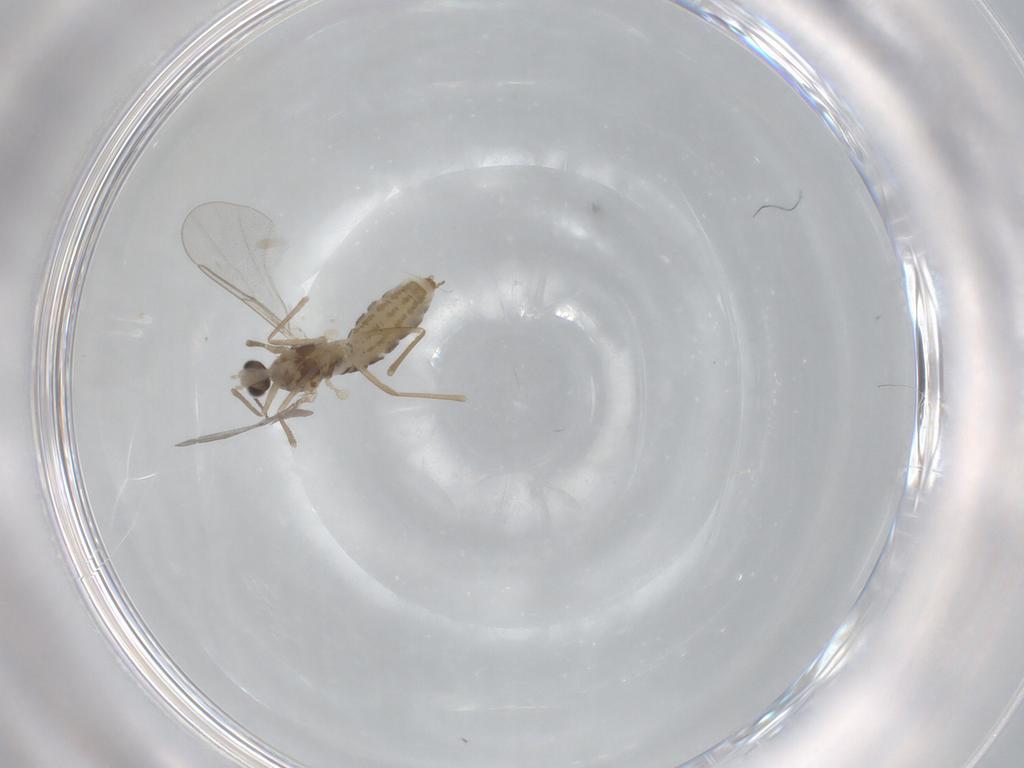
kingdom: Animalia
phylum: Arthropoda
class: Insecta
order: Diptera
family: Cecidomyiidae
